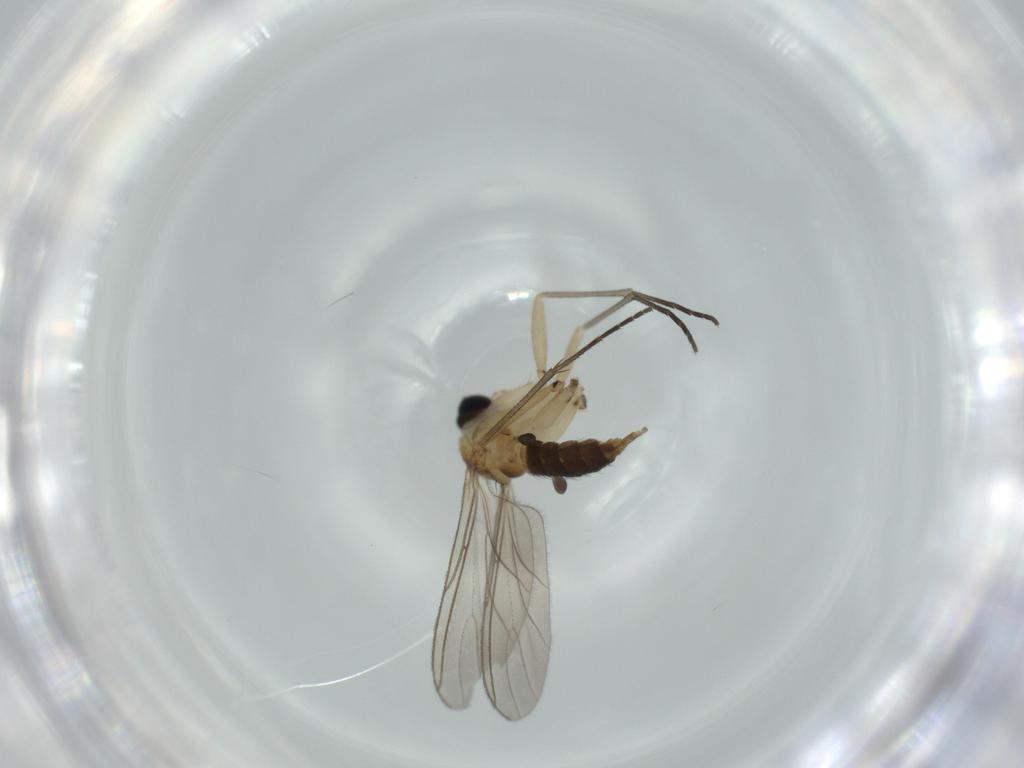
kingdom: Animalia
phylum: Arthropoda
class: Insecta
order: Diptera
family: Sciaridae
